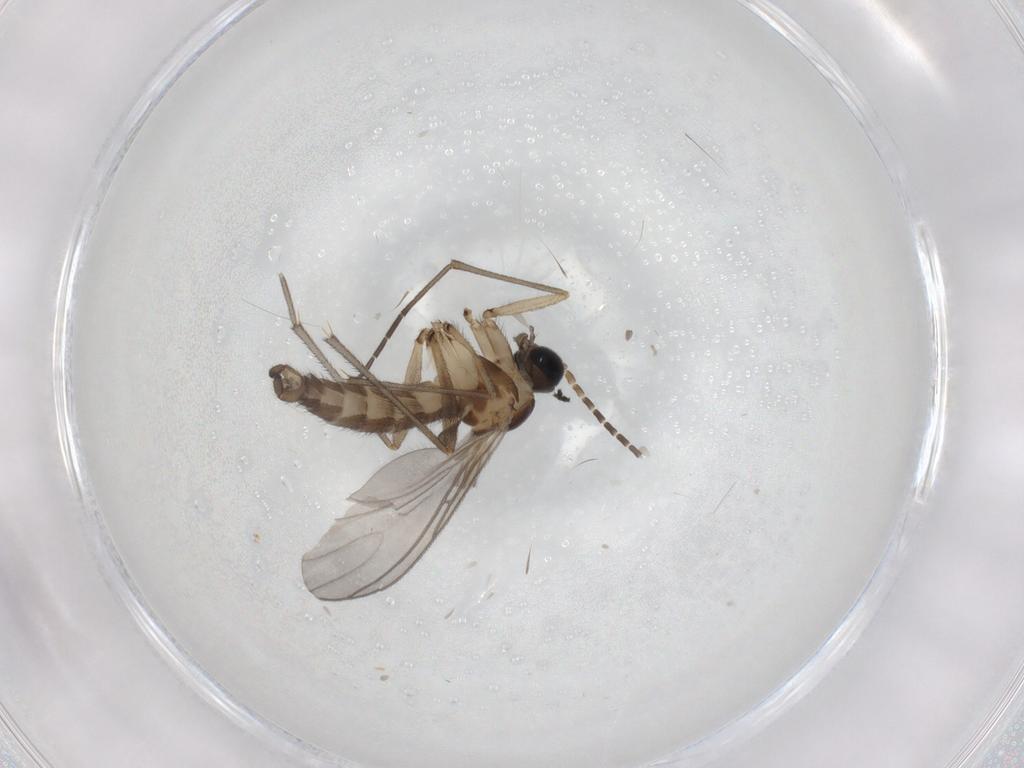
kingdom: Animalia
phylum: Arthropoda
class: Insecta
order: Diptera
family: Sciaridae
